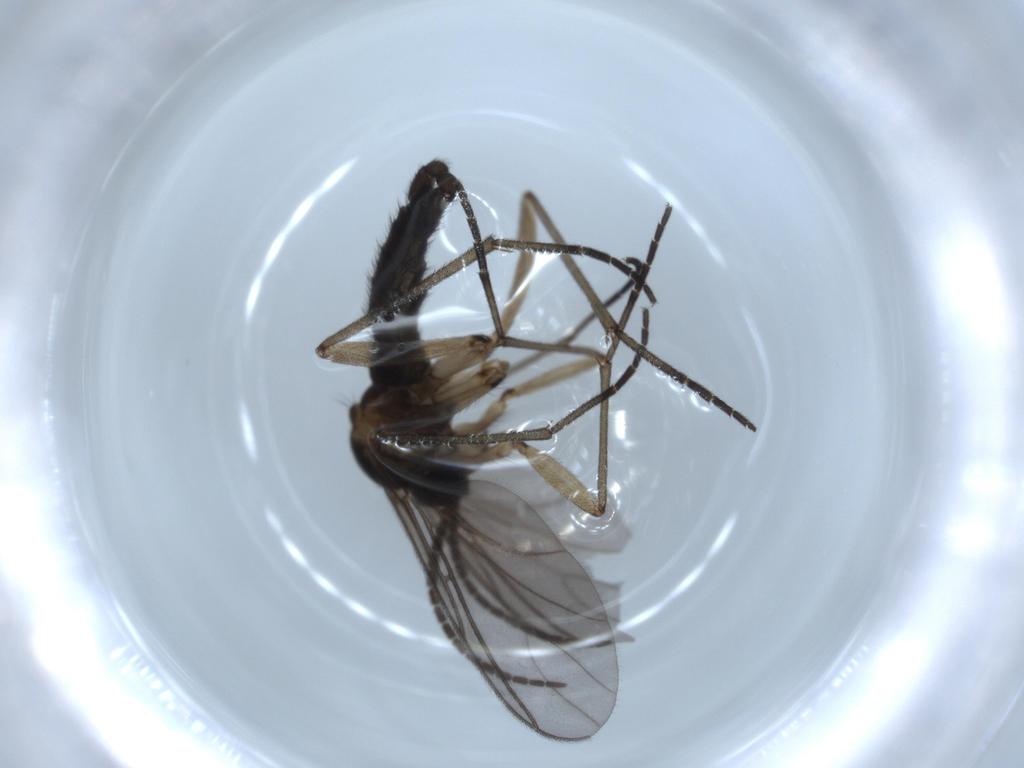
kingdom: Animalia
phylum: Arthropoda
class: Insecta
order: Diptera
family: Sciaridae
